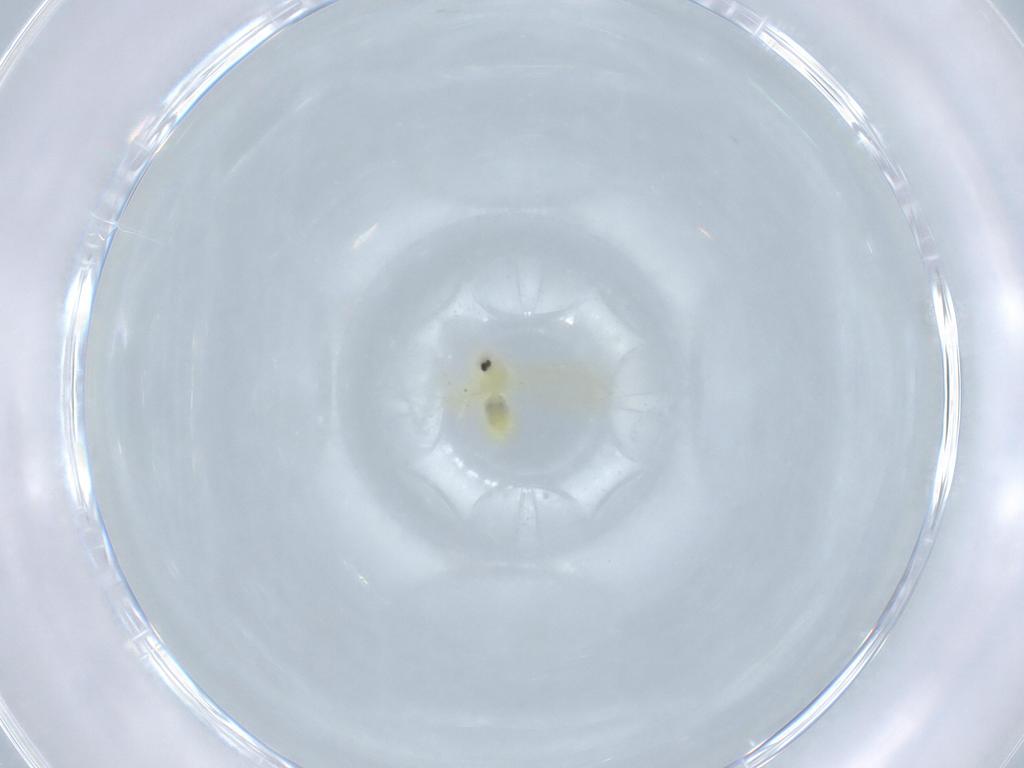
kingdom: Animalia
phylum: Arthropoda
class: Insecta
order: Hemiptera
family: Aleyrodidae
